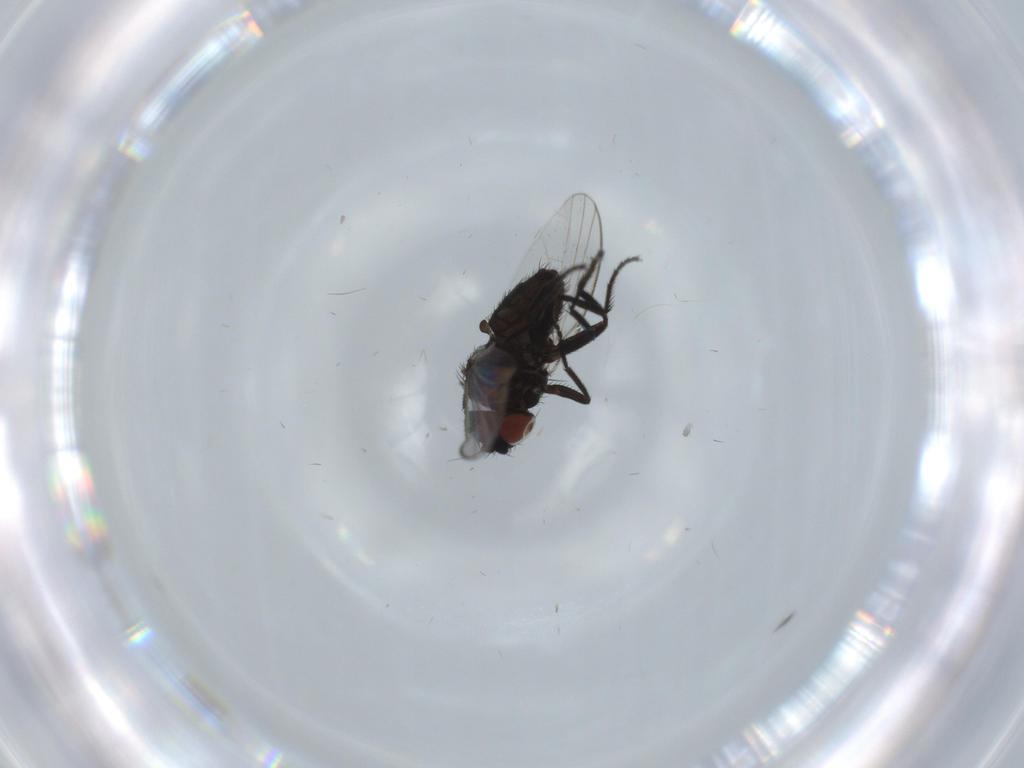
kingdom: Animalia
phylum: Arthropoda
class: Insecta
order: Diptera
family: Milichiidae
